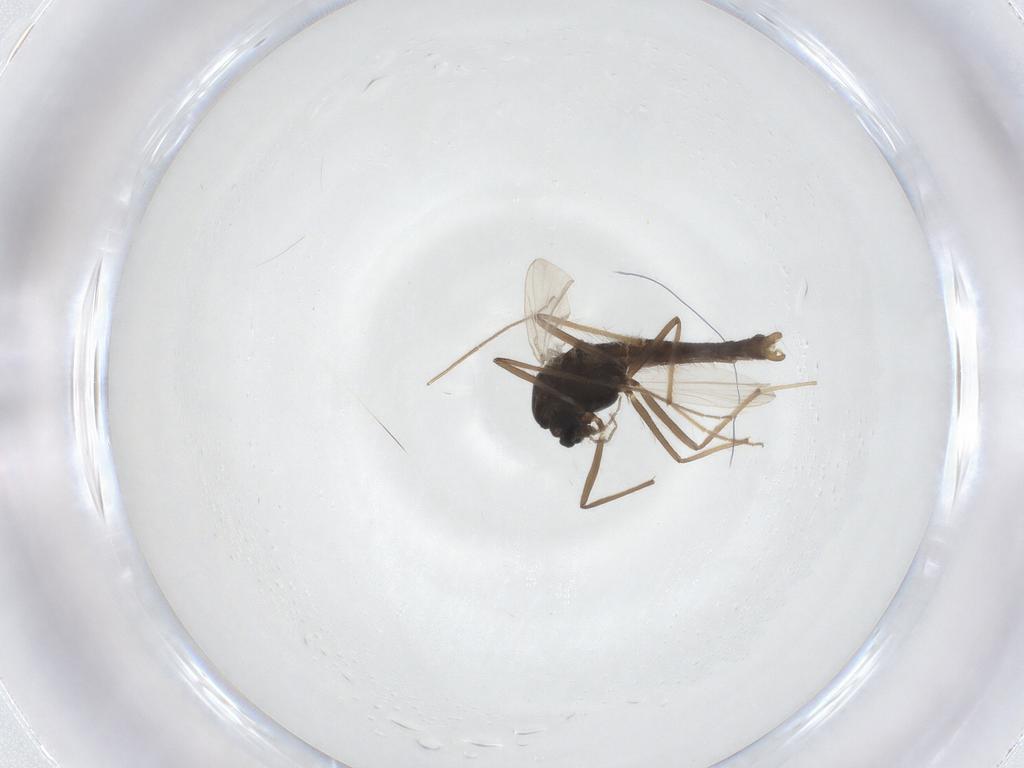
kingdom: Animalia
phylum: Arthropoda
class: Insecta
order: Diptera
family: Chironomidae
